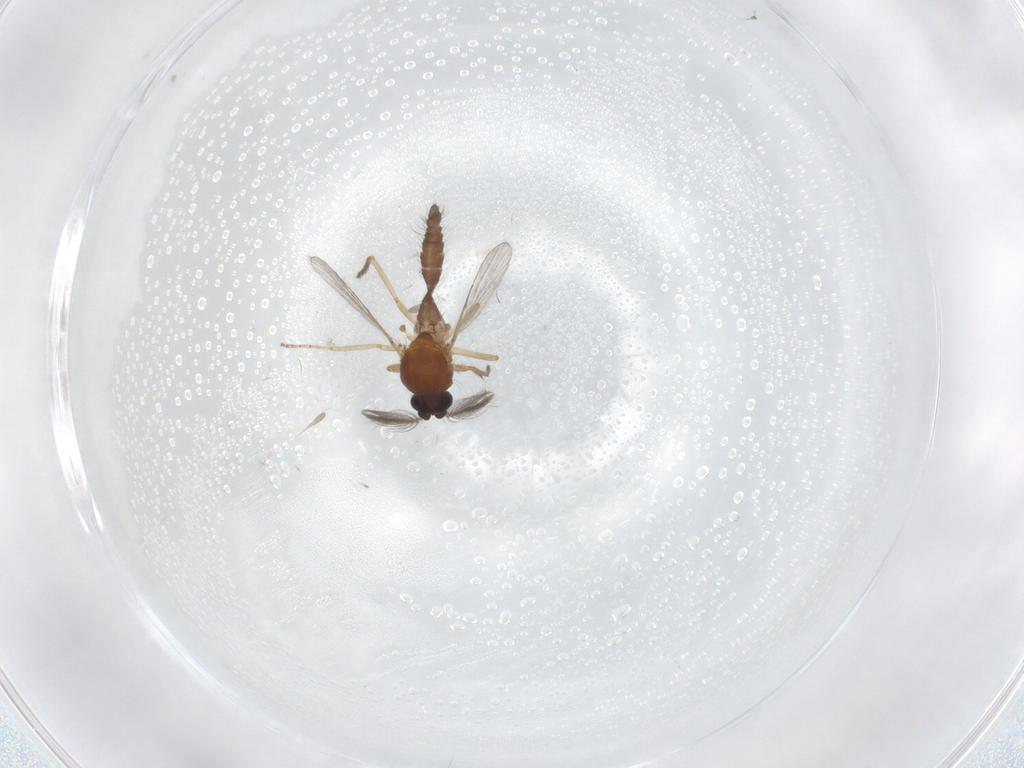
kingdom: Animalia
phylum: Arthropoda
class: Insecta
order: Diptera
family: Ceratopogonidae
